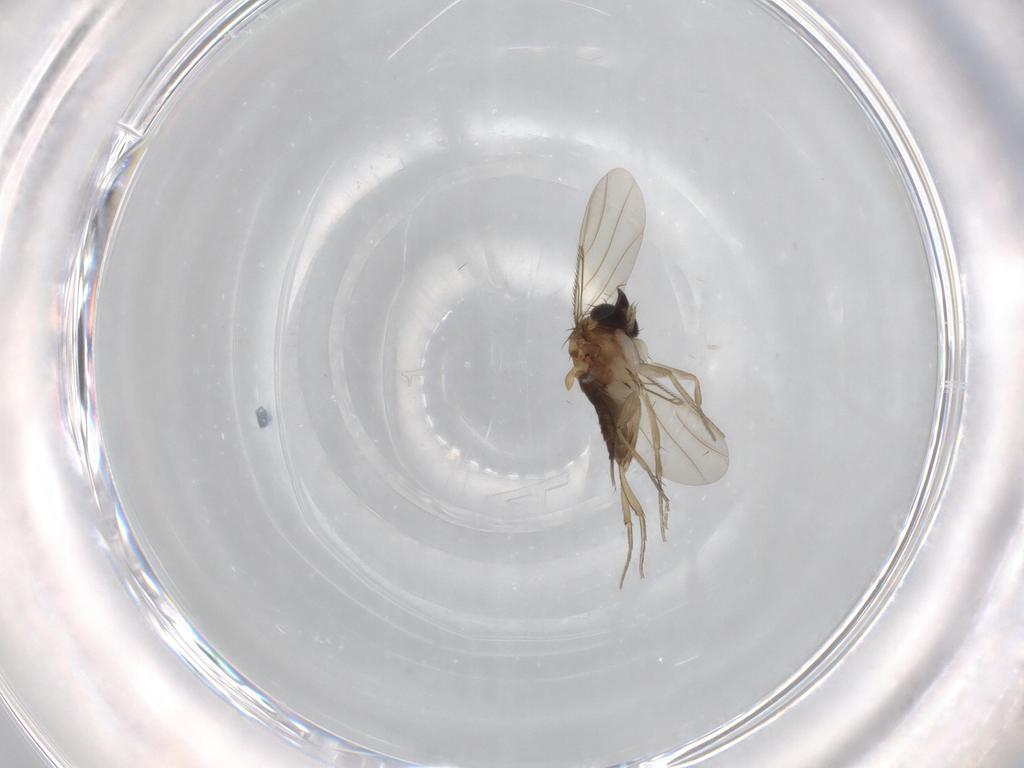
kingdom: Animalia
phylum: Arthropoda
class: Insecta
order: Diptera
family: Phoridae
